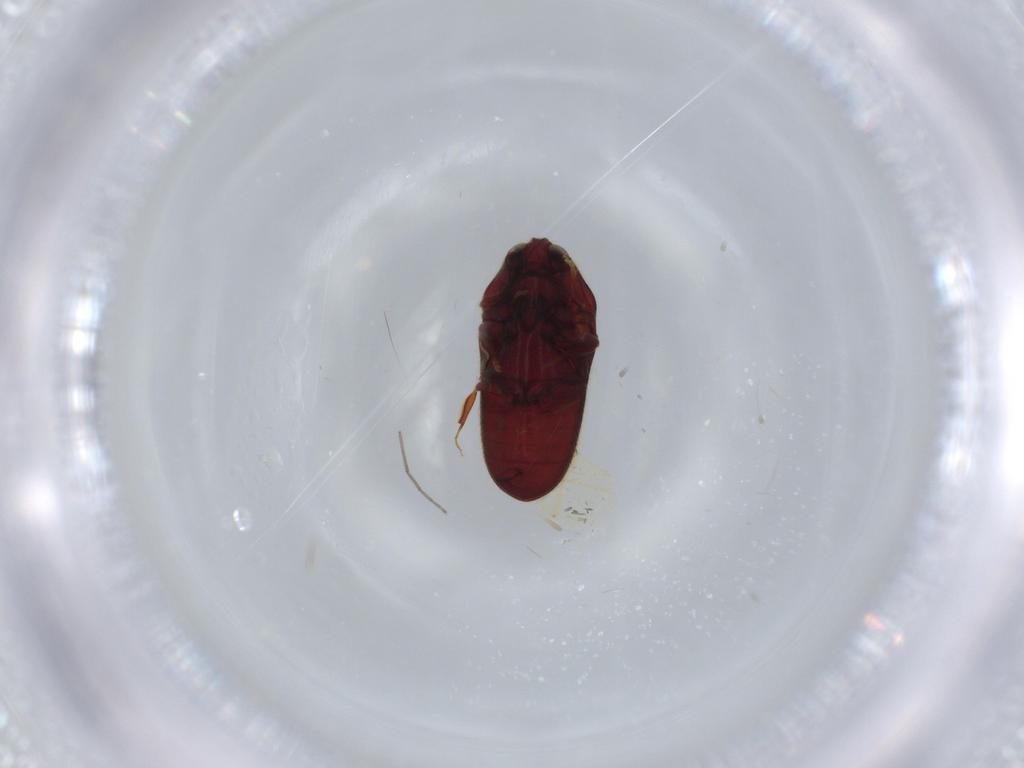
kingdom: Animalia
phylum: Arthropoda
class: Insecta
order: Coleoptera
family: Throscidae
